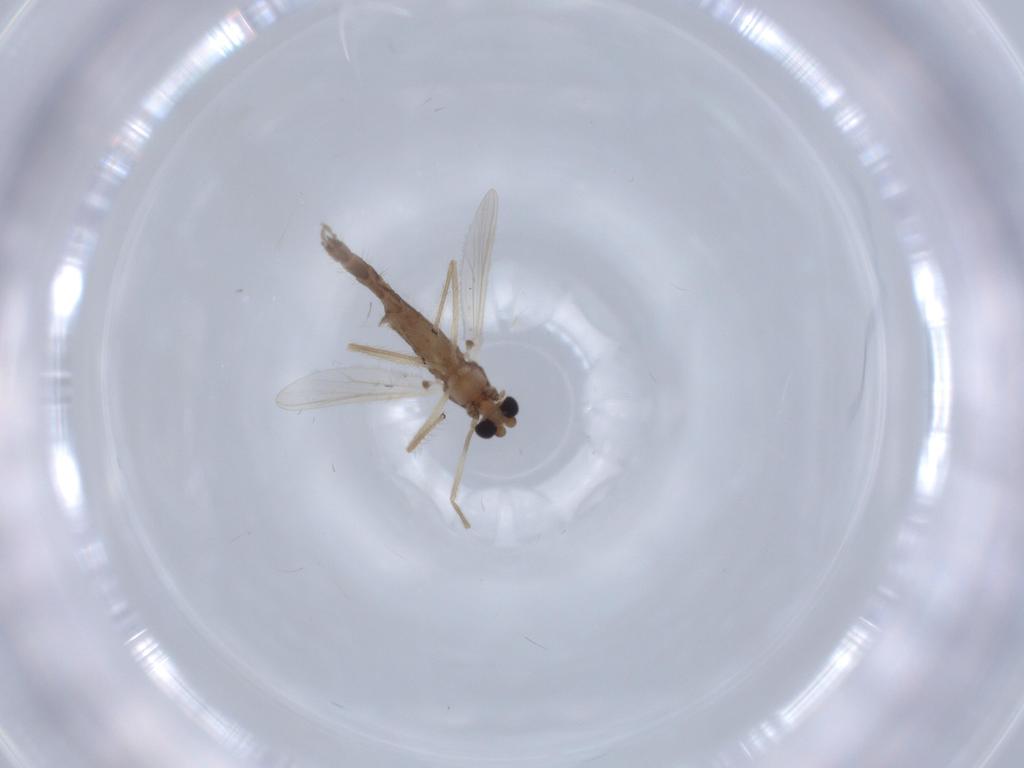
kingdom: Animalia
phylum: Arthropoda
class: Insecta
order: Diptera
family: Chironomidae
